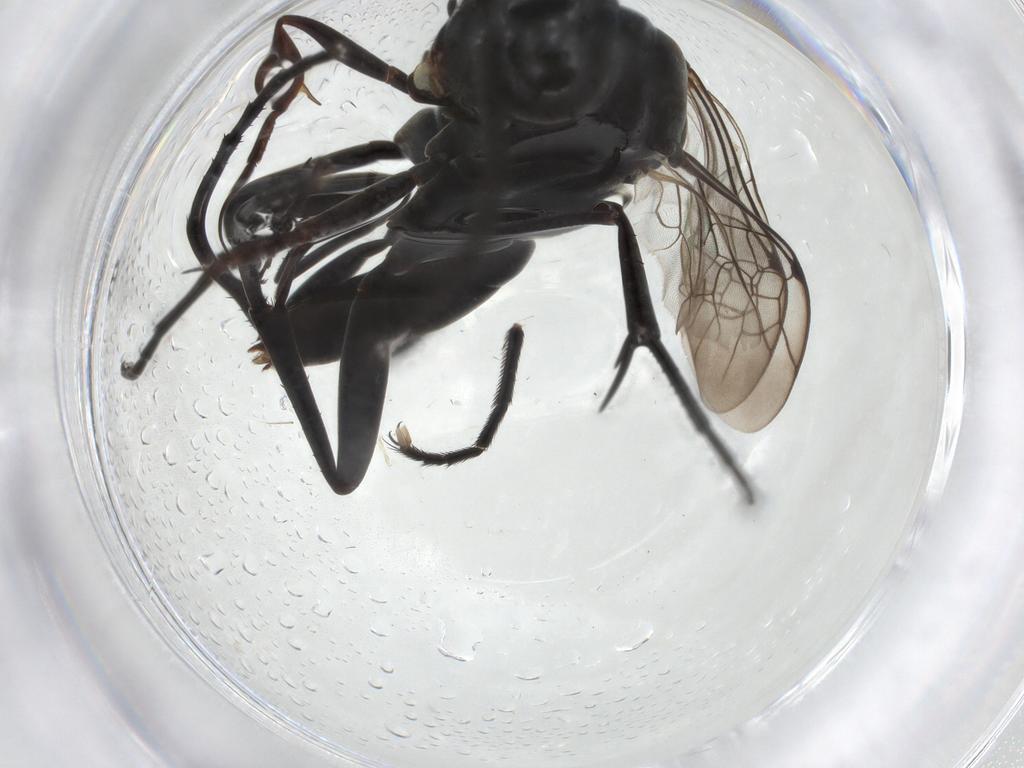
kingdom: Animalia
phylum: Arthropoda
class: Insecta
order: Hymenoptera
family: Pompilidae
